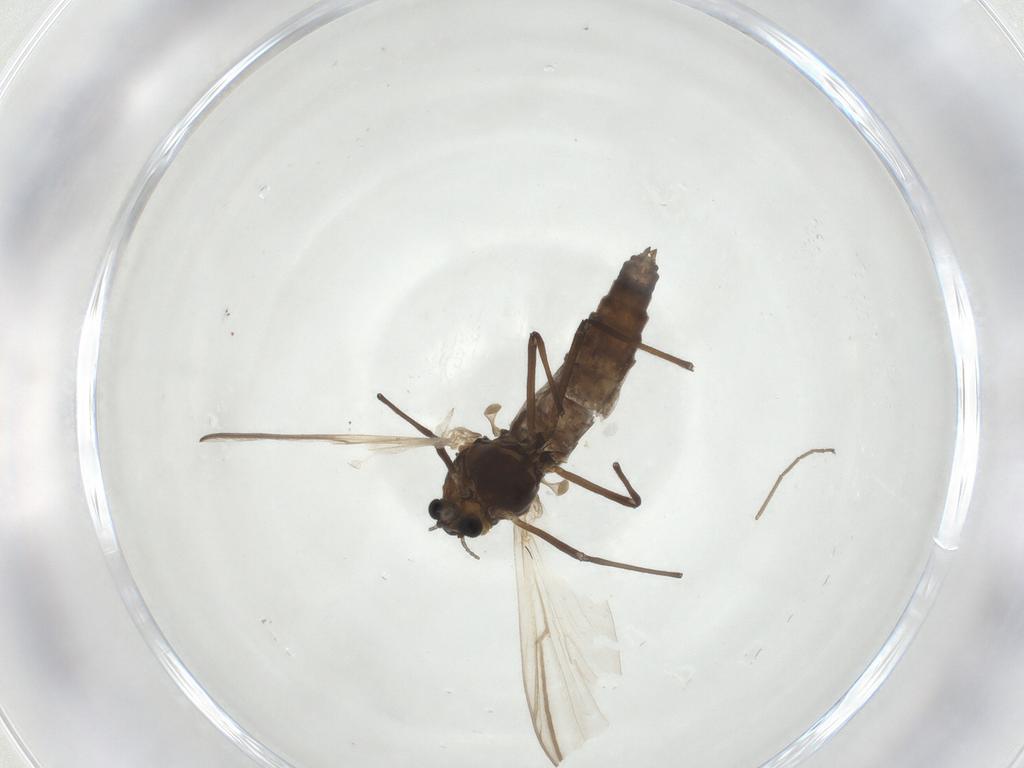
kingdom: Animalia
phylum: Arthropoda
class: Insecta
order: Diptera
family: Chironomidae
